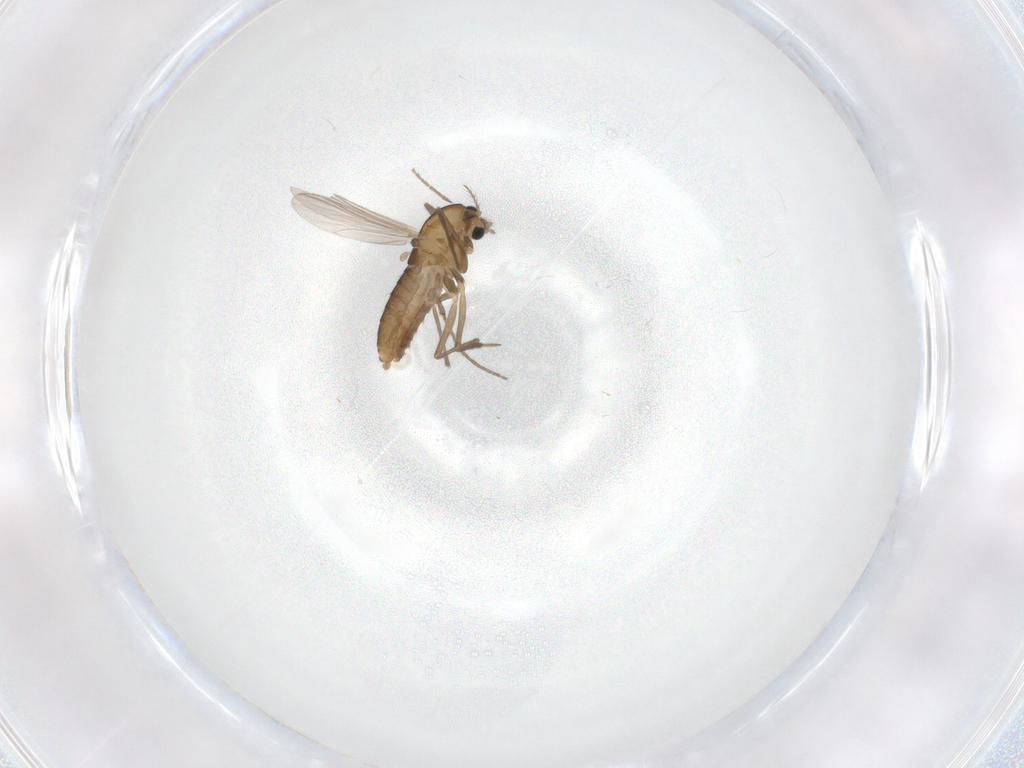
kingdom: Animalia
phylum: Arthropoda
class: Insecta
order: Diptera
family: Chironomidae
